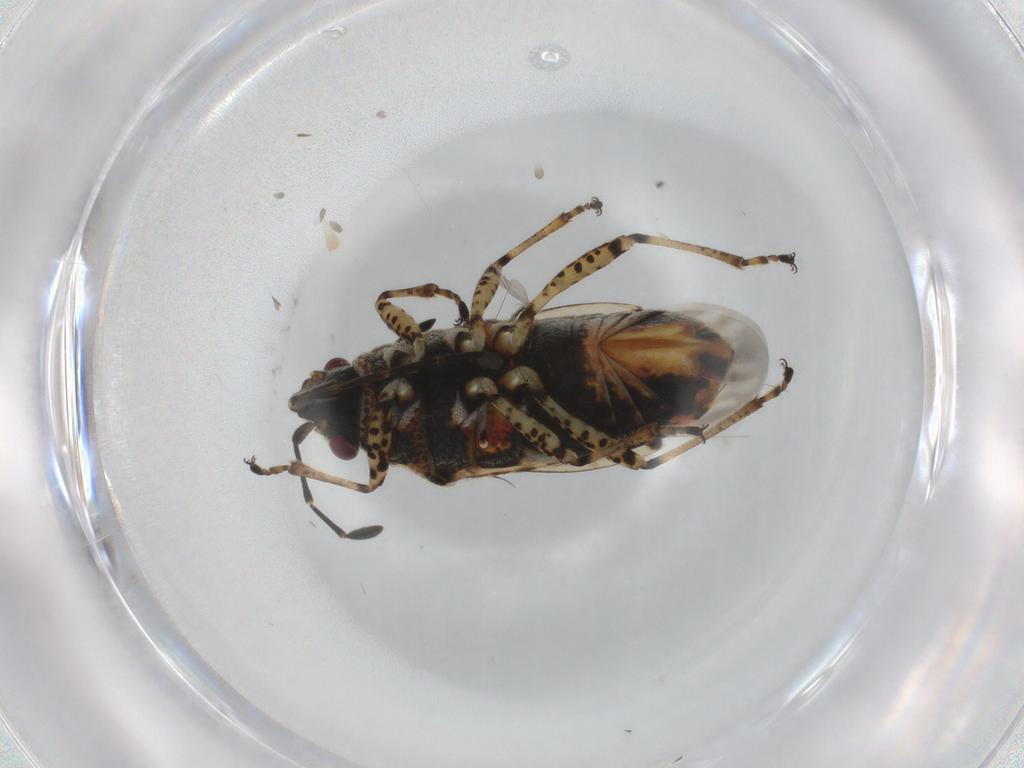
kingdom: Animalia
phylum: Arthropoda
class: Insecta
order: Hemiptera
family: Lygaeidae
